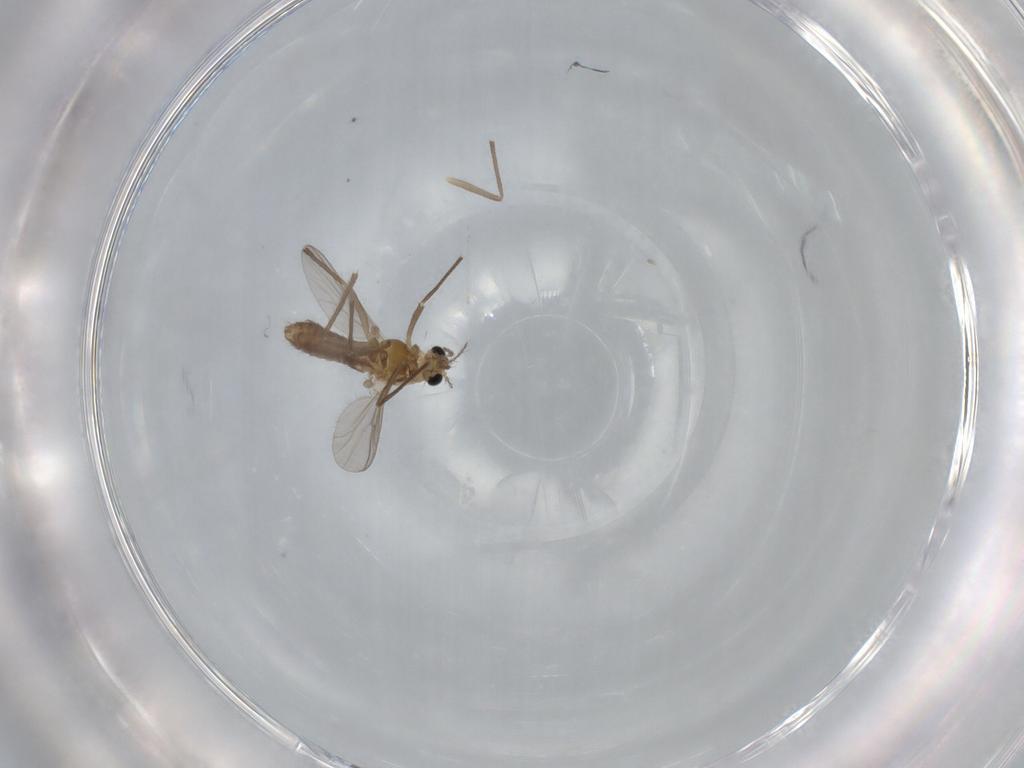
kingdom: Animalia
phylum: Arthropoda
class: Insecta
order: Diptera
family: Chironomidae
